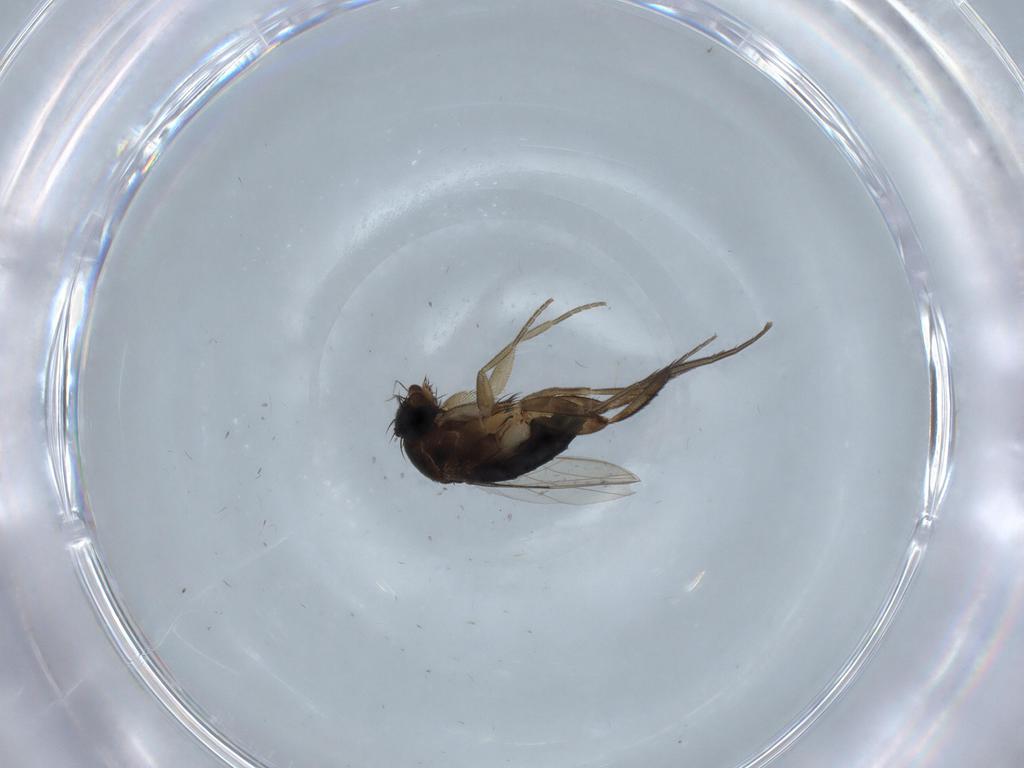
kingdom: Animalia
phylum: Arthropoda
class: Insecta
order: Diptera
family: Phoridae
